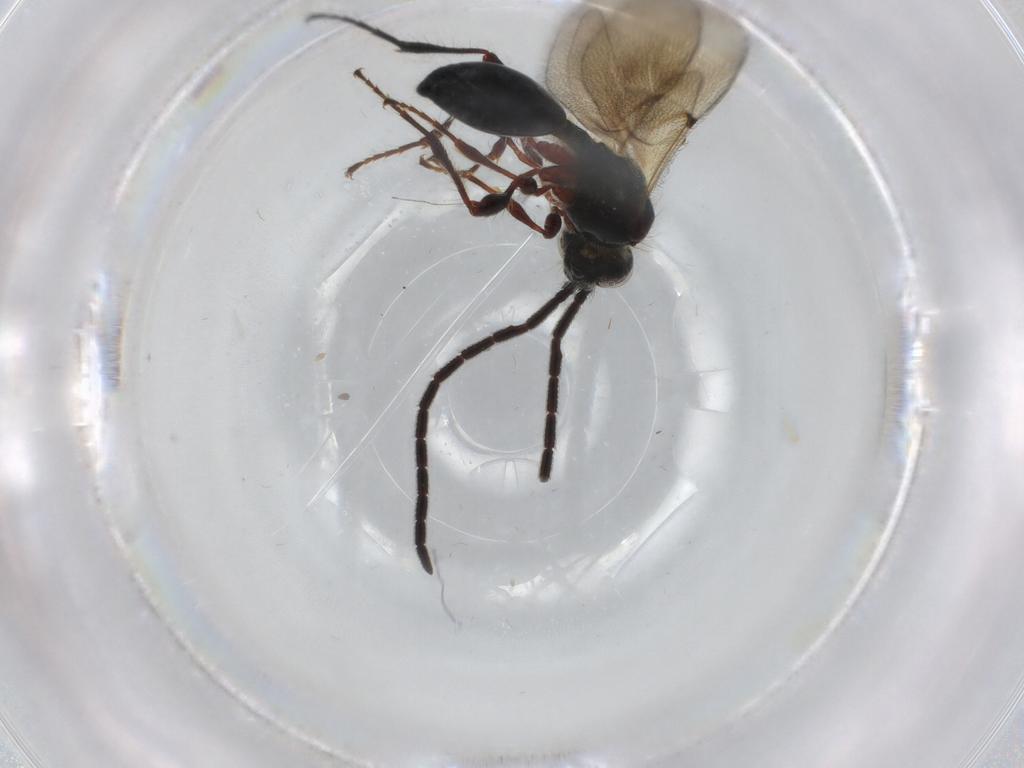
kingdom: Animalia
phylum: Arthropoda
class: Insecta
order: Hymenoptera
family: Diapriidae
